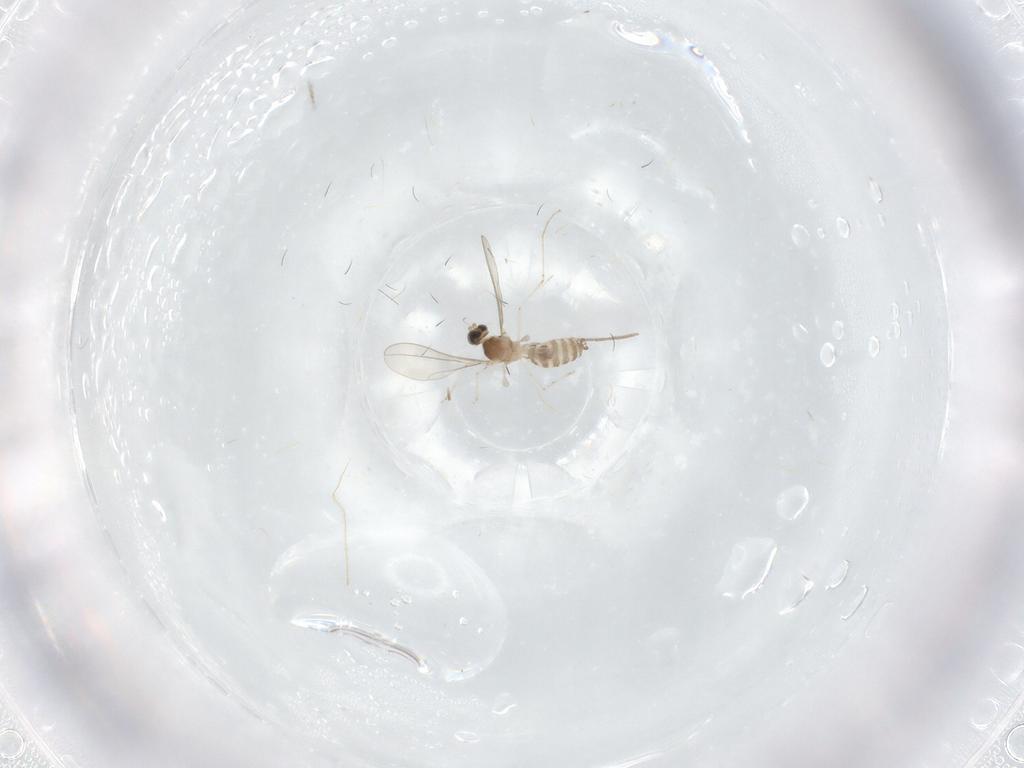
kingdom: Animalia
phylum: Arthropoda
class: Insecta
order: Diptera
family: Cecidomyiidae
